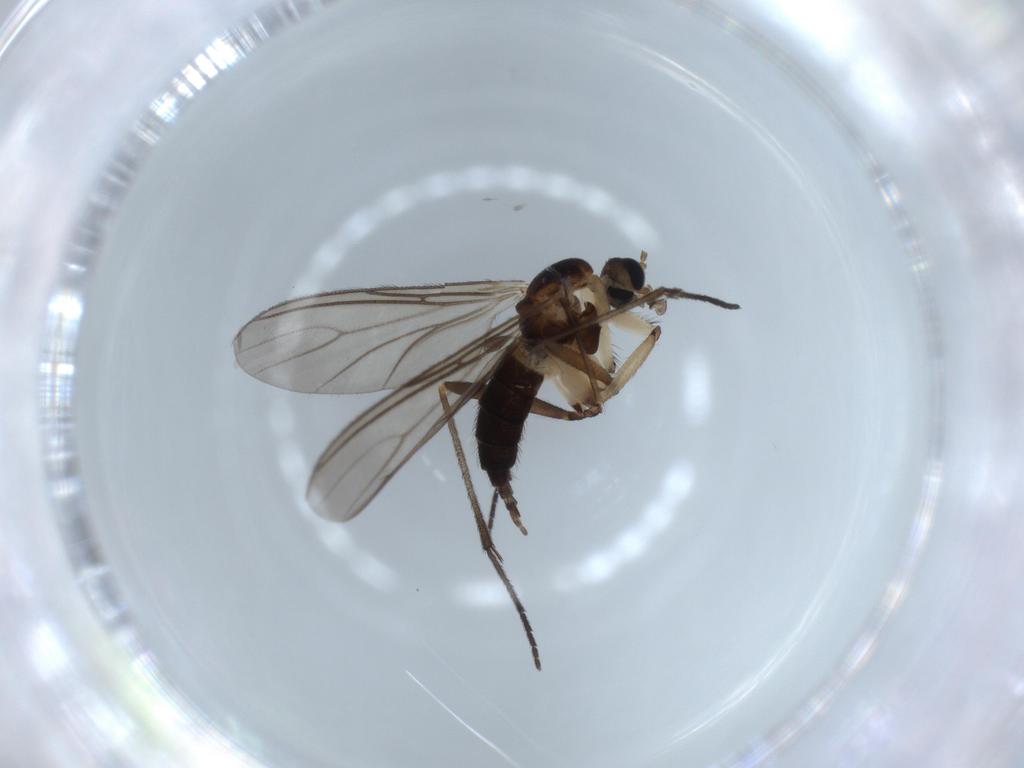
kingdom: Animalia
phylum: Arthropoda
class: Insecta
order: Diptera
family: Sciaridae
